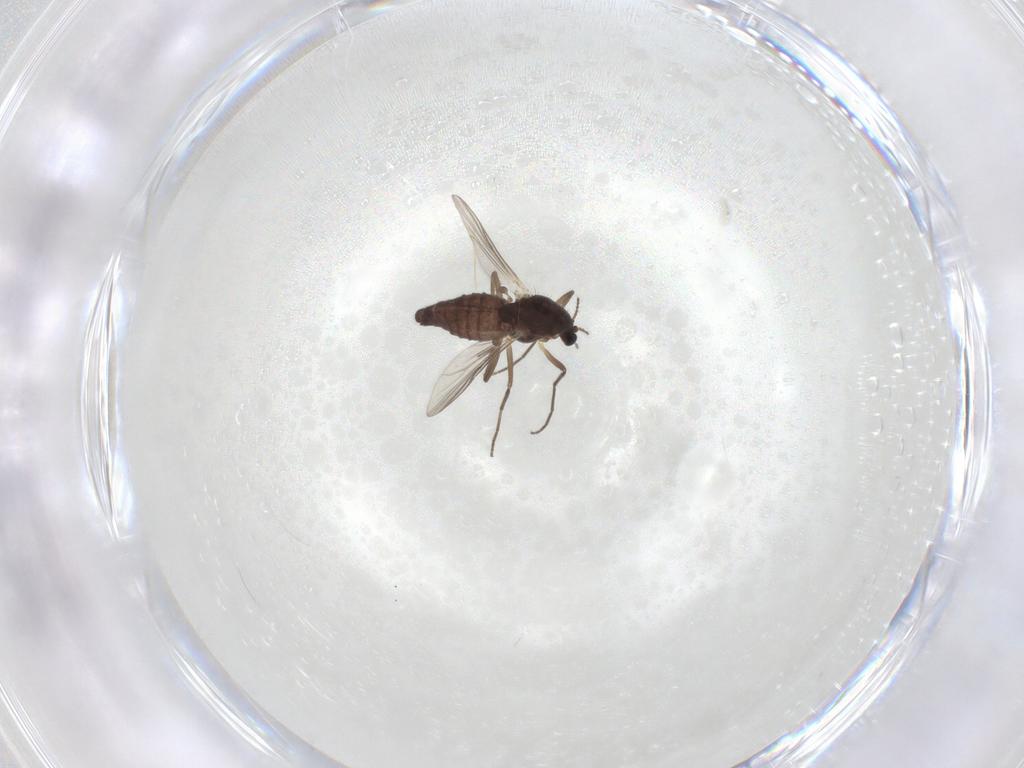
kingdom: Animalia
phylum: Arthropoda
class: Insecta
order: Diptera
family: Chironomidae
